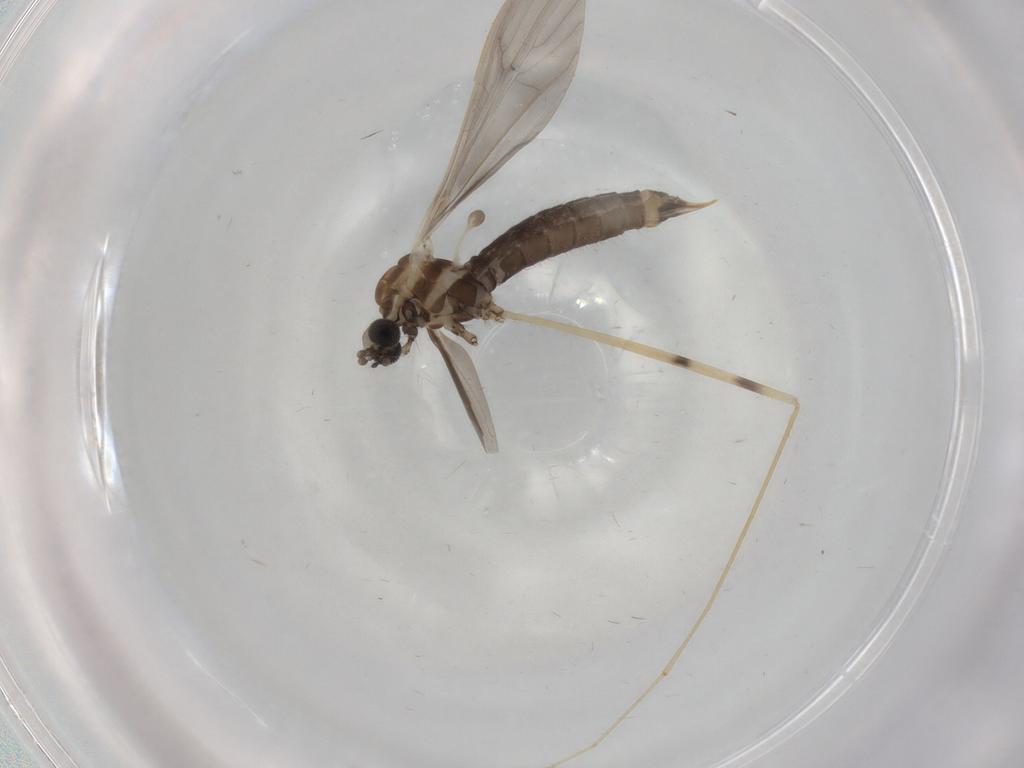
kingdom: Animalia
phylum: Arthropoda
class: Insecta
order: Diptera
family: Limoniidae
